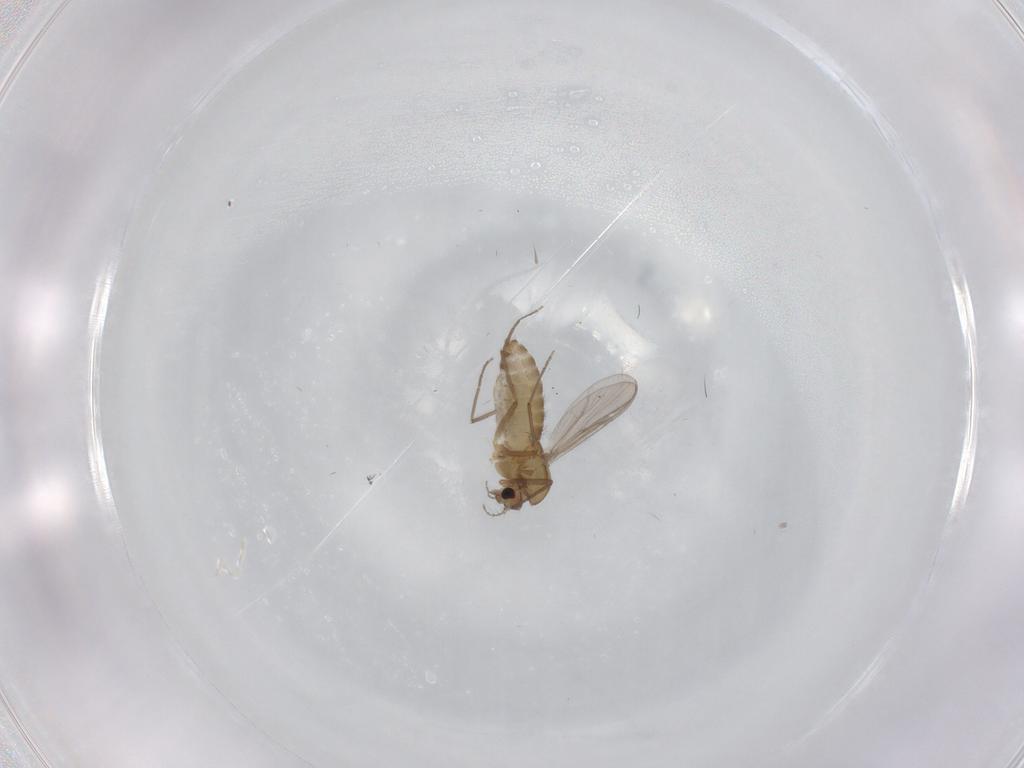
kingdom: Animalia
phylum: Arthropoda
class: Insecta
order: Diptera
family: Chironomidae
